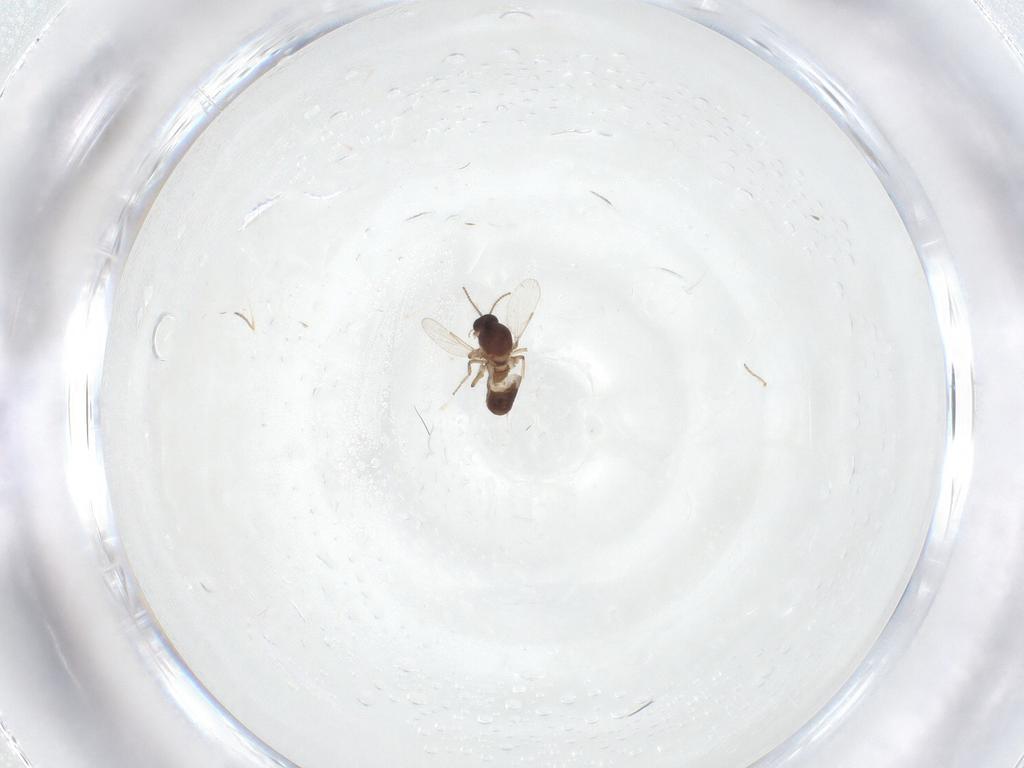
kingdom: Animalia
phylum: Arthropoda
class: Insecta
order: Diptera
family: Ceratopogonidae
